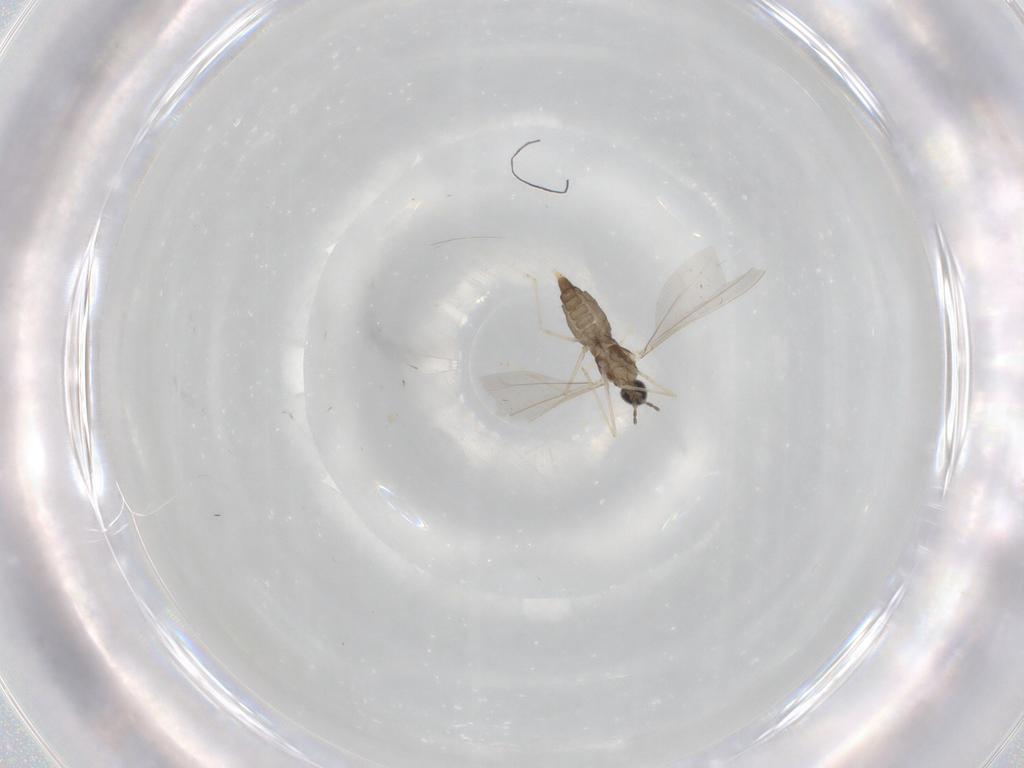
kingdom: Animalia
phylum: Arthropoda
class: Insecta
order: Diptera
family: Cecidomyiidae
